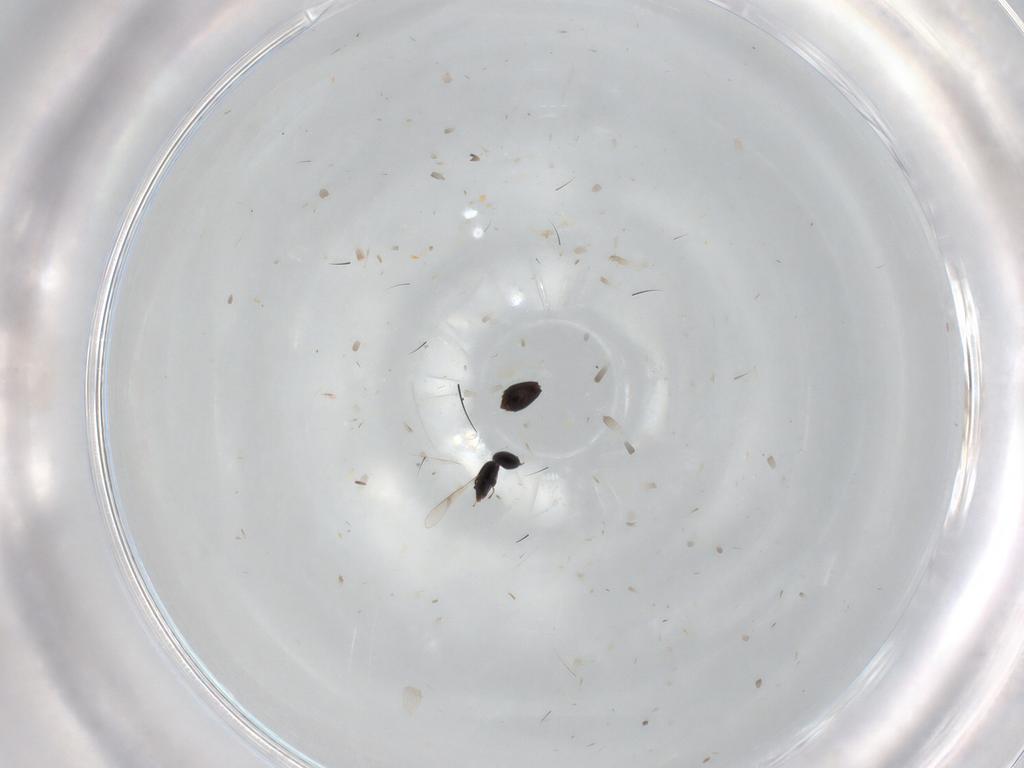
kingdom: Animalia
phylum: Arthropoda
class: Insecta
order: Hymenoptera
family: Scelionidae
